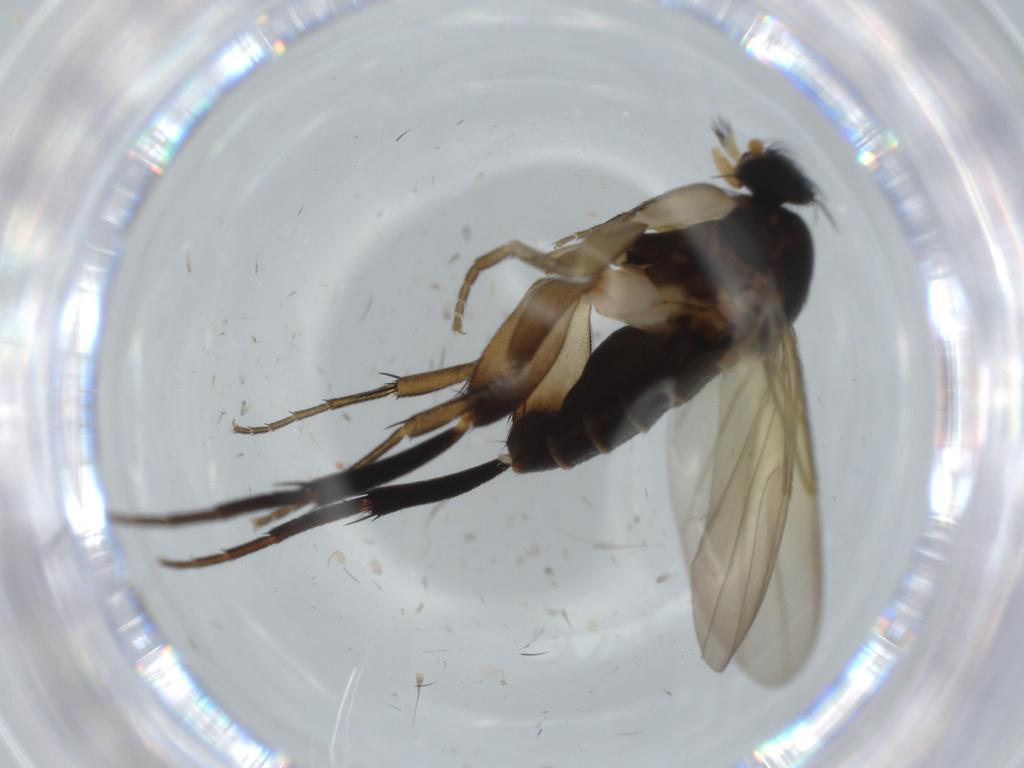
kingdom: Animalia
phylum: Arthropoda
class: Insecta
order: Diptera
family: Phoridae
